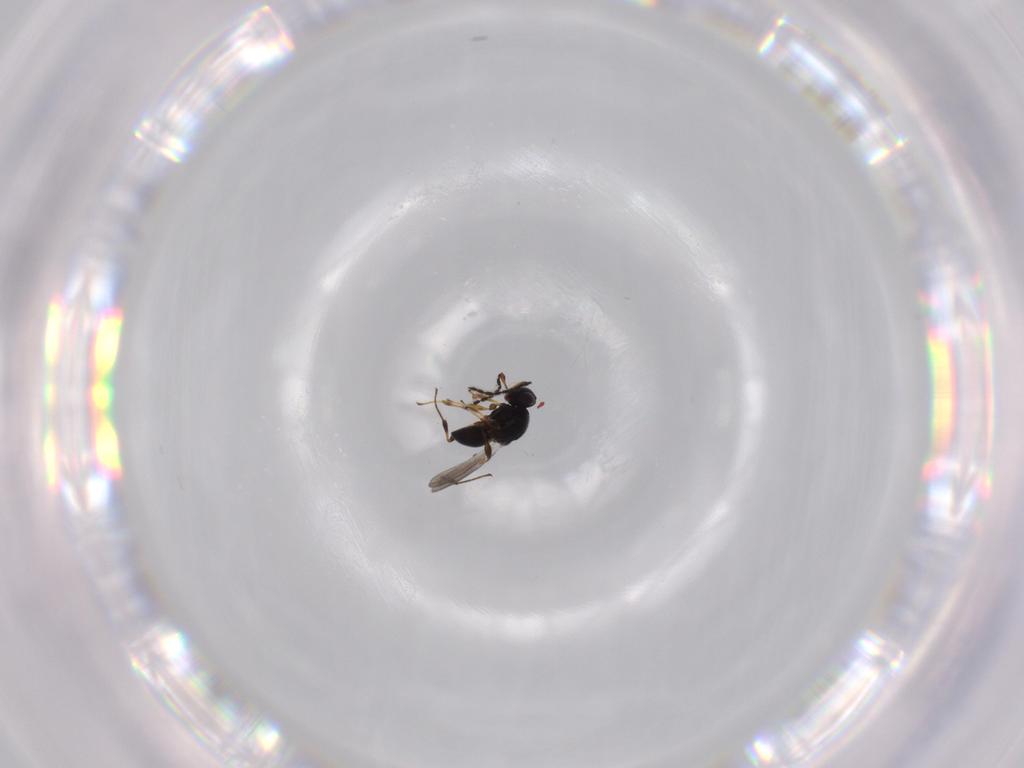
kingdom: Animalia
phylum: Arthropoda
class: Insecta
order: Hymenoptera
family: Platygastridae
